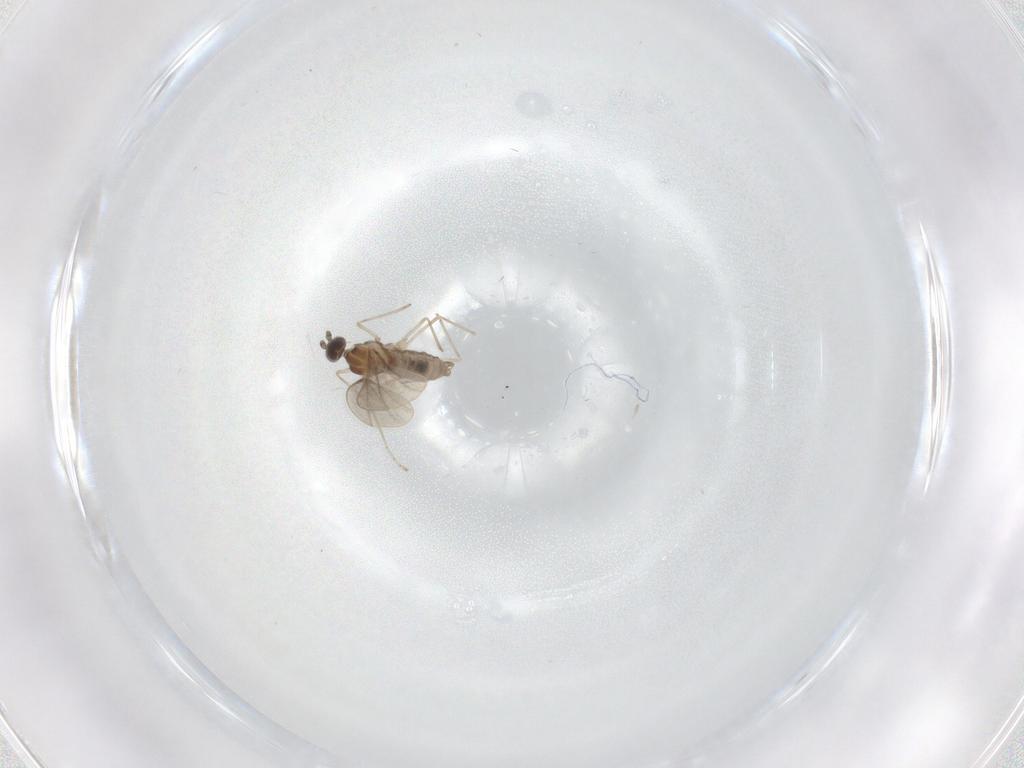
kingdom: Animalia
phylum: Arthropoda
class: Insecta
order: Diptera
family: Cecidomyiidae
